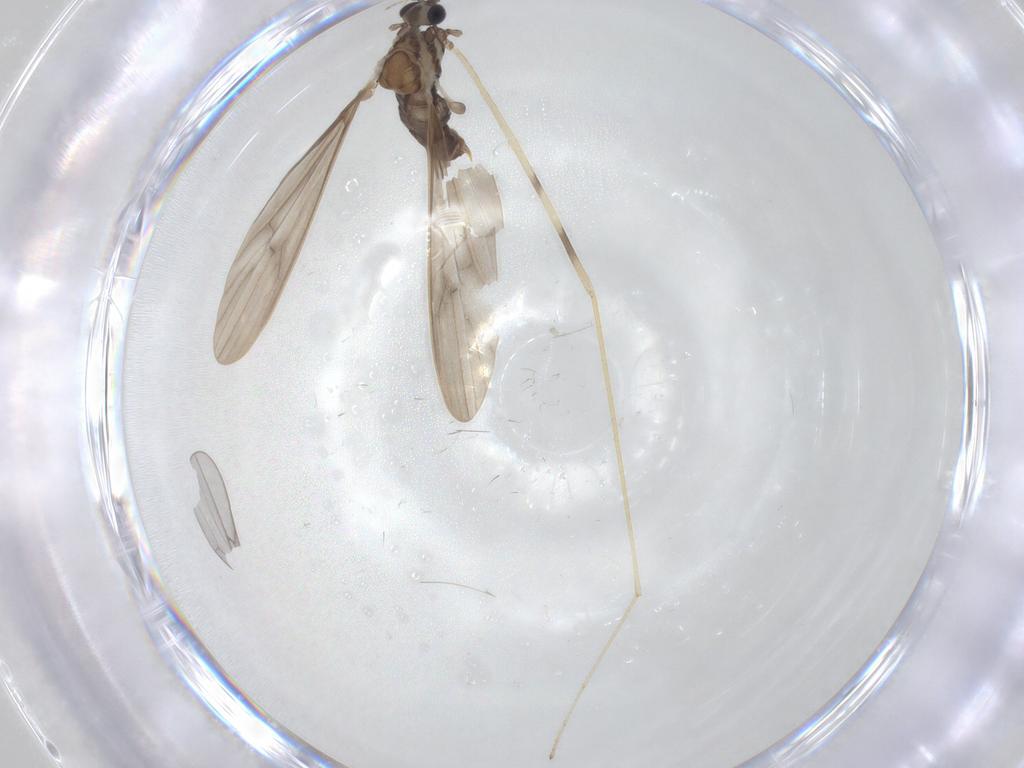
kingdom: Animalia
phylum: Arthropoda
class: Insecta
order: Diptera
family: Limoniidae
